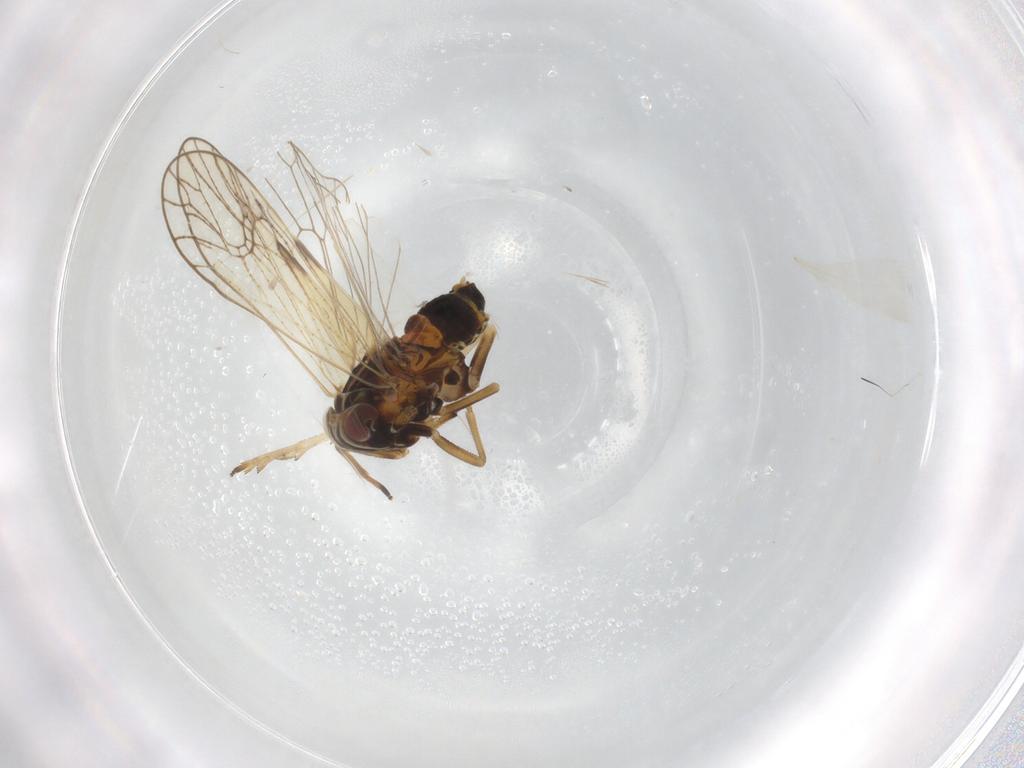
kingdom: Animalia
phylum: Arthropoda
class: Insecta
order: Hemiptera
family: Delphacidae
